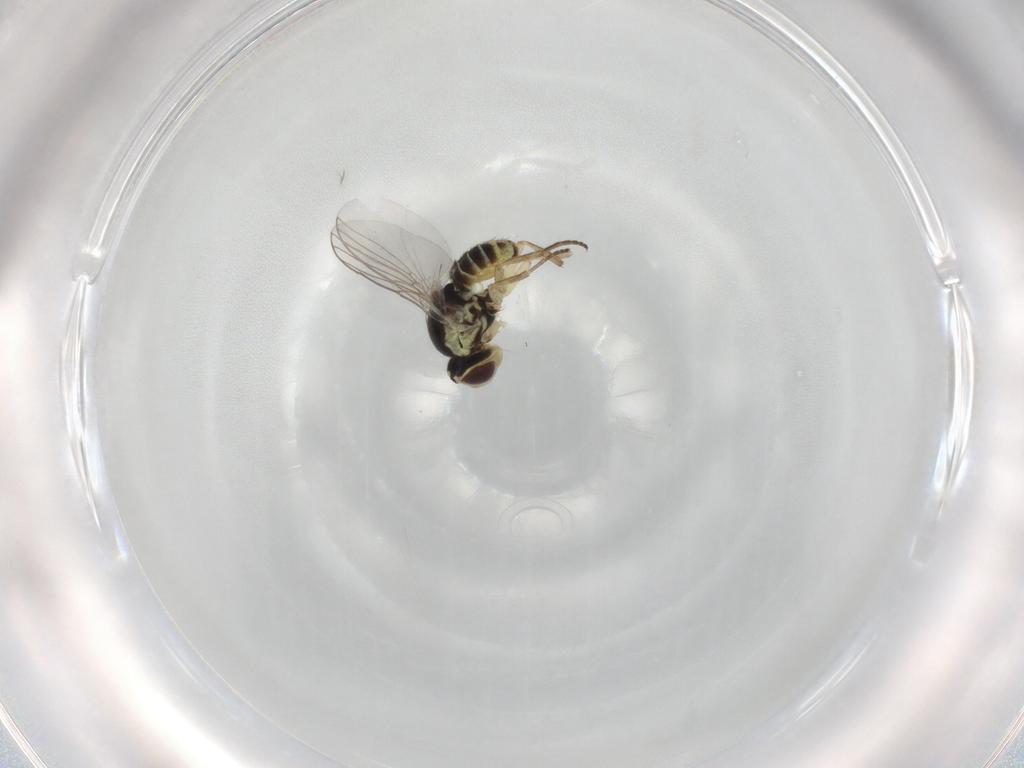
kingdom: Animalia
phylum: Arthropoda
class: Insecta
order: Diptera
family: Agromyzidae
